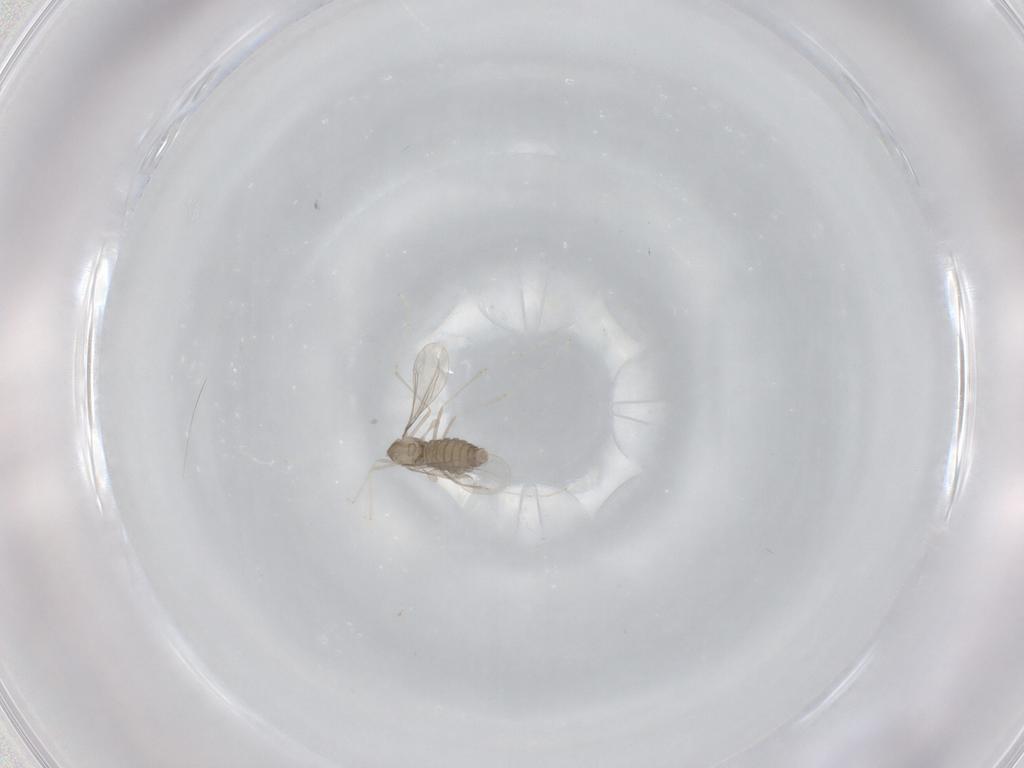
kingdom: Animalia
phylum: Arthropoda
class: Insecta
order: Diptera
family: Cecidomyiidae
